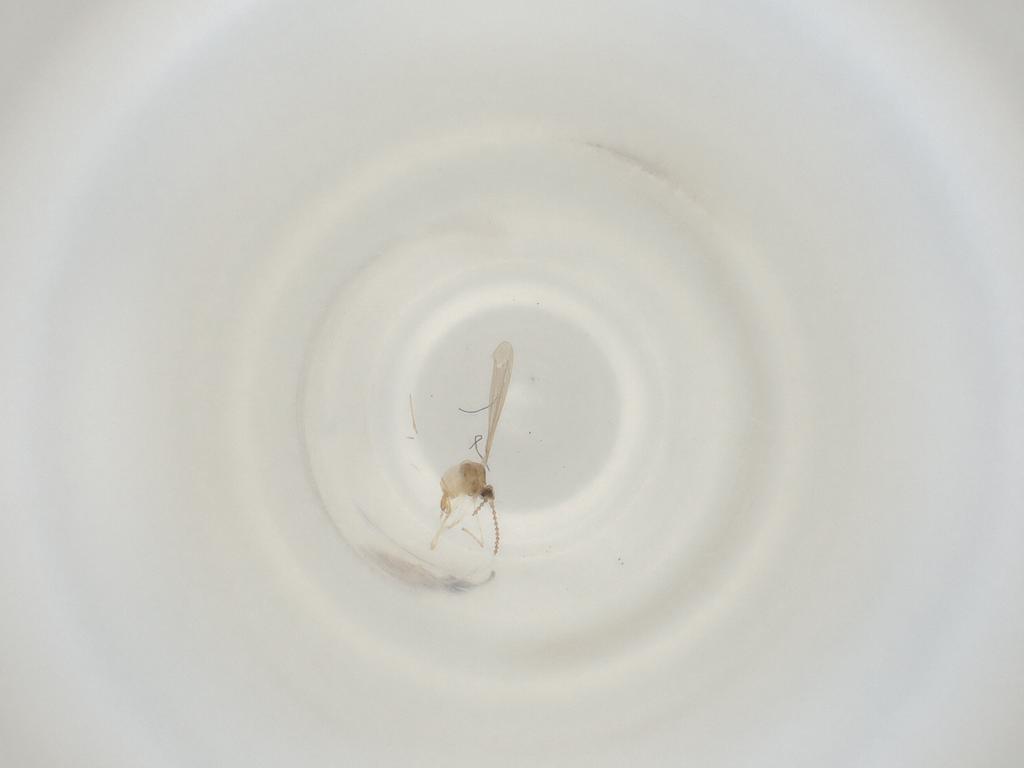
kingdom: Animalia
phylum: Arthropoda
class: Insecta
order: Diptera
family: Cecidomyiidae
